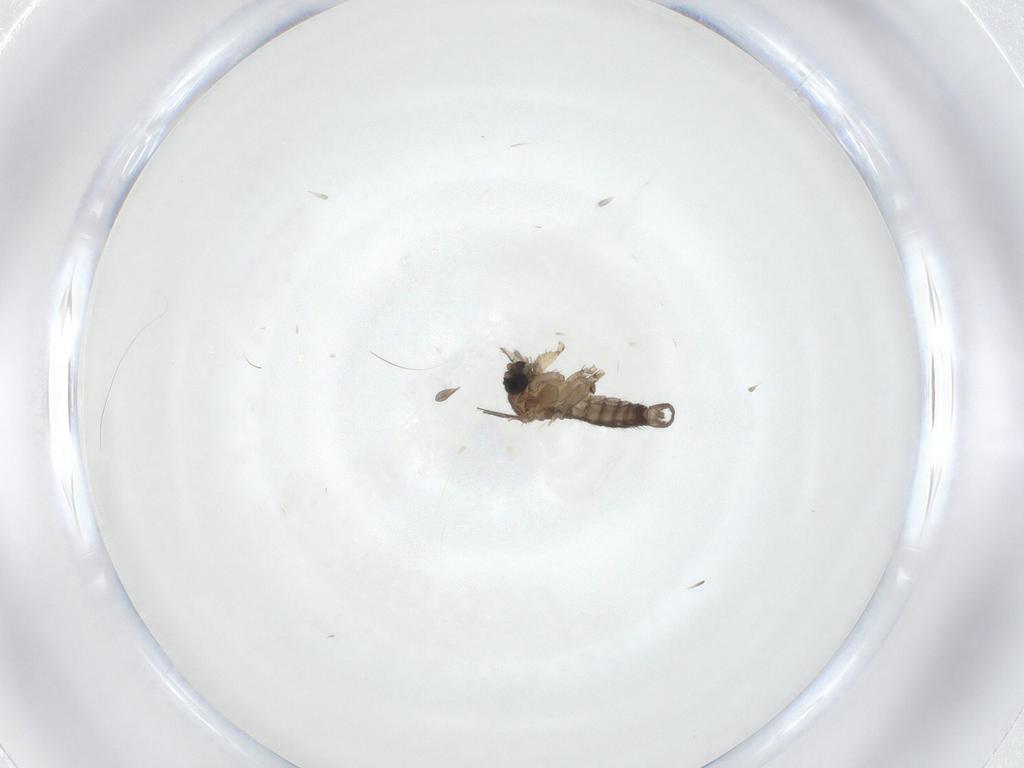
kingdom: Animalia
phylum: Arthropoda
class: Insecta
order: Diptera
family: Sciaridae
